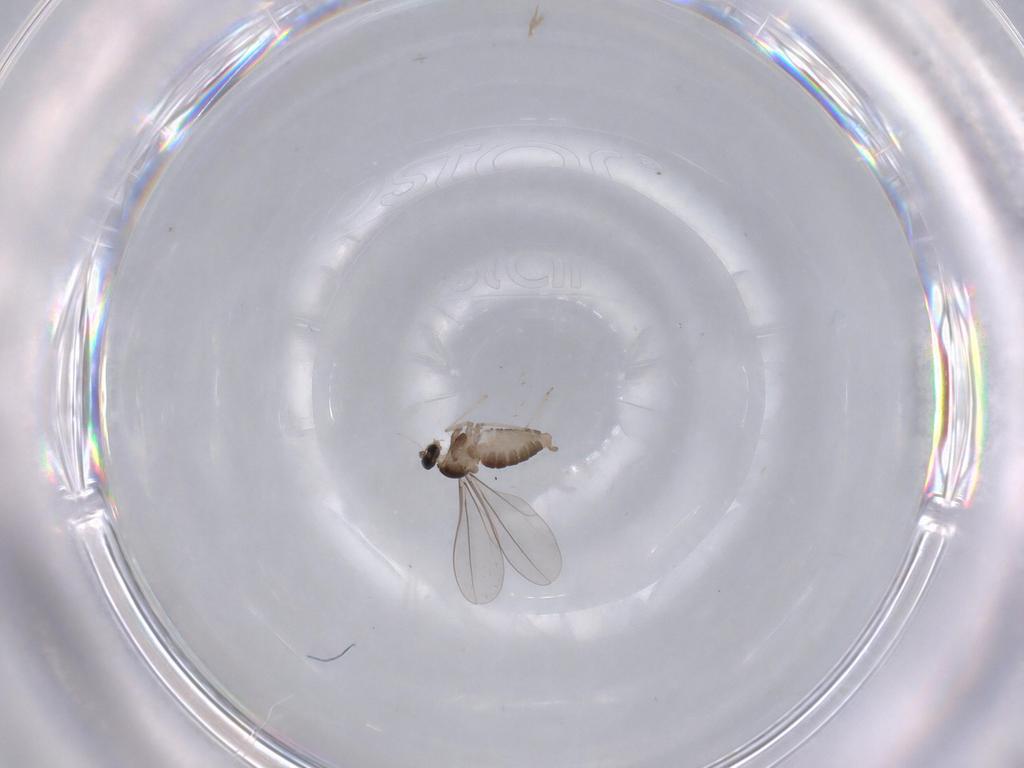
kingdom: Animalia
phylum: Arthropoda
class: Insecta
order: Diptera
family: Cecidomyiidae
